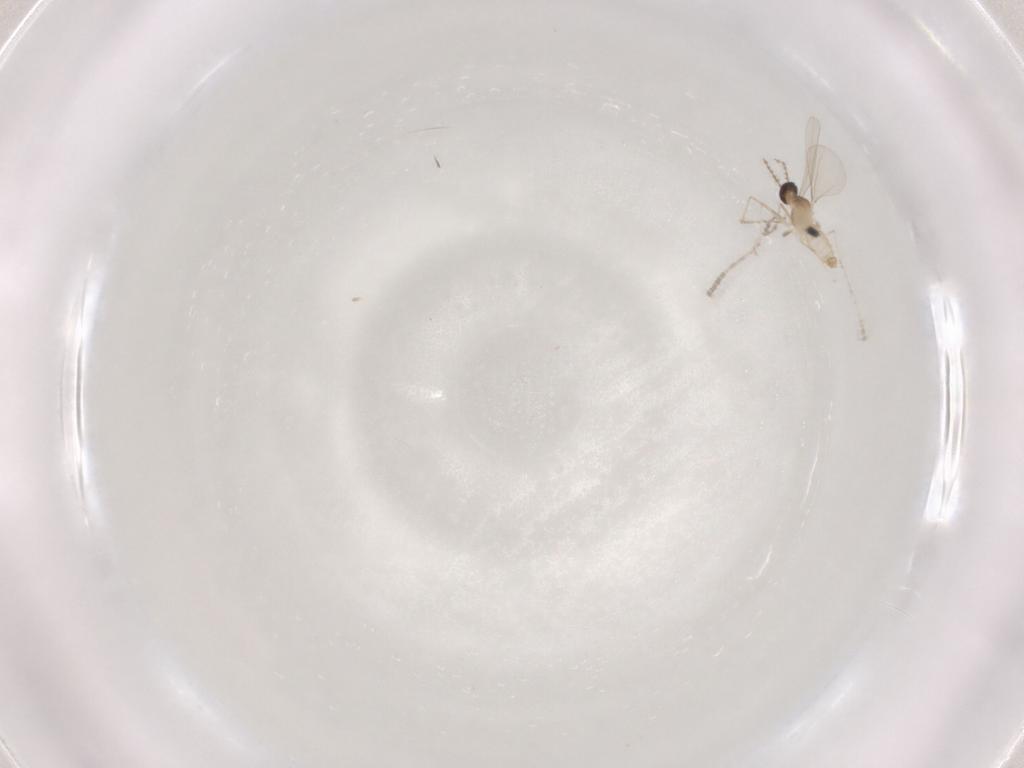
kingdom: Animalia
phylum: Arthropoda
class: Insecta
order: Diptera
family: Cecidomyiidae
